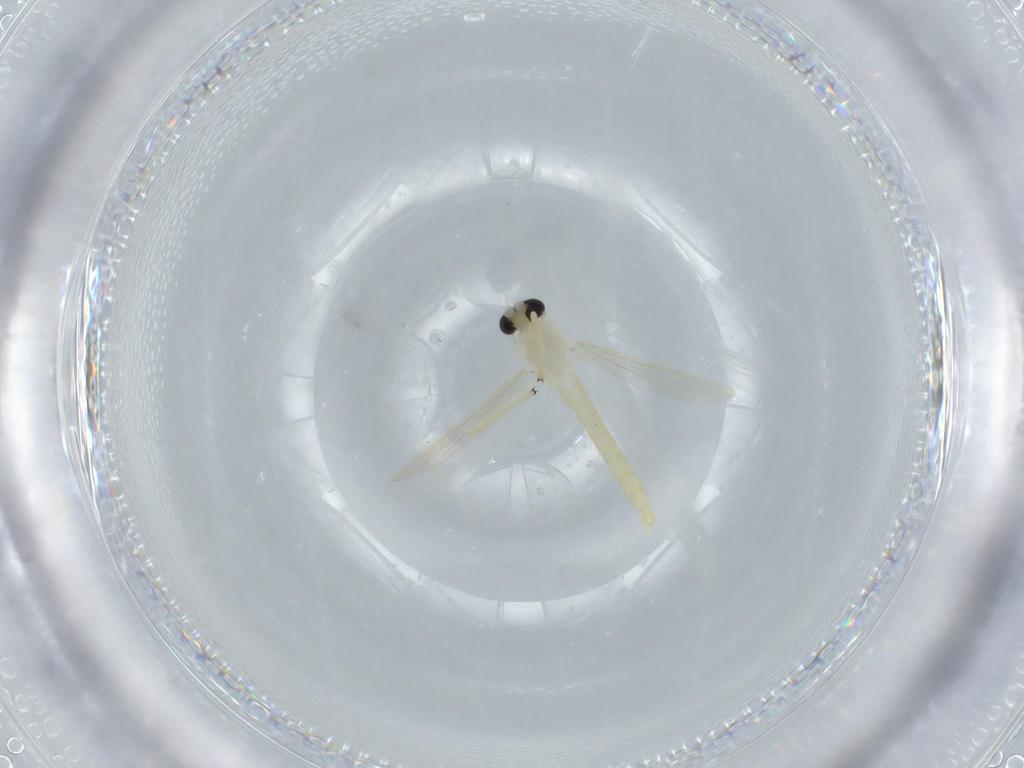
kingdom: Animalia
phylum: Arthropoda
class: Insecta
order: Diptera
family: Chironomidae
